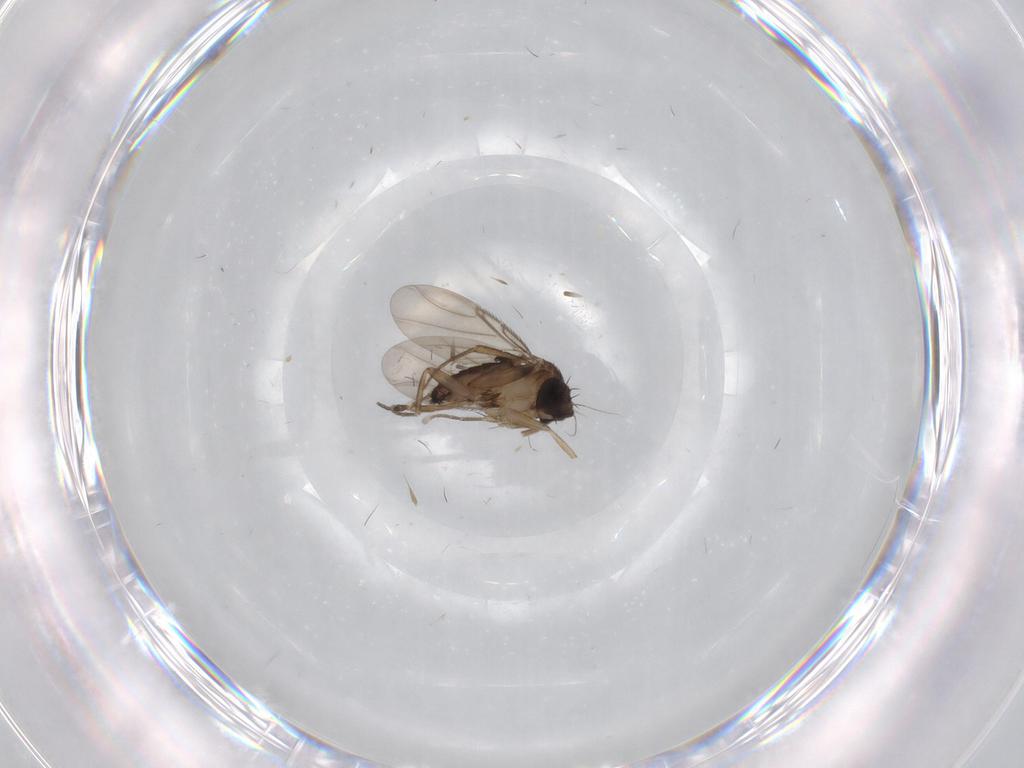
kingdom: Animalia
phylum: Arthropoda
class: Insecta
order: Diptera
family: Phoridae
